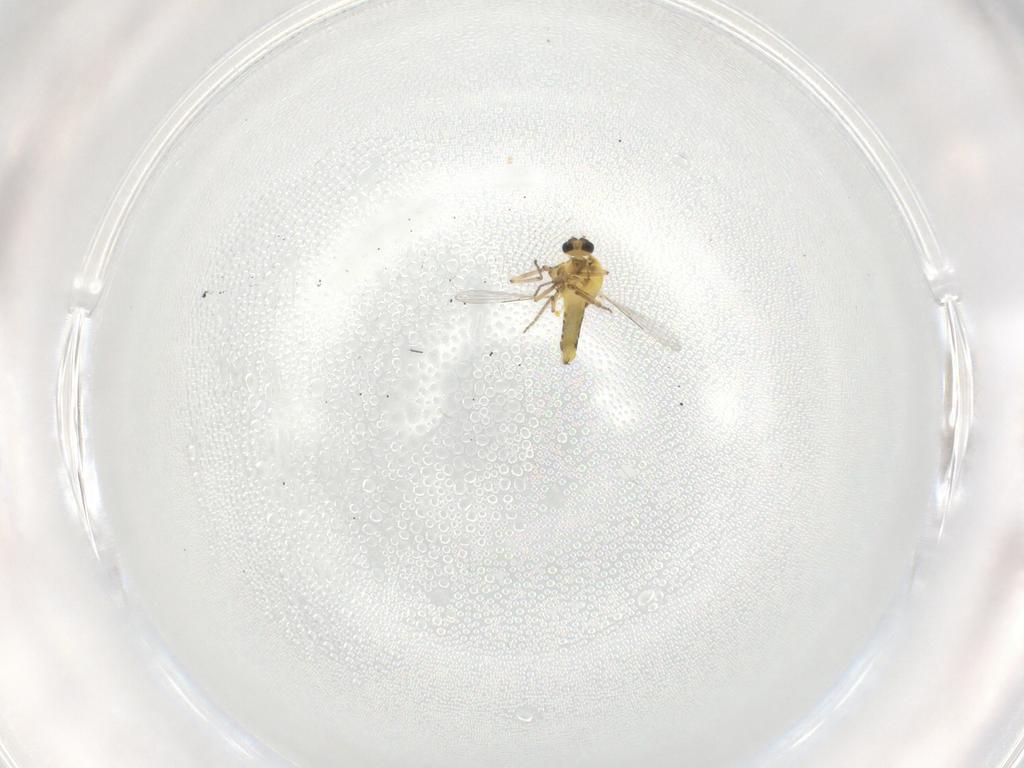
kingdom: Animalia
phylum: Arthropoda
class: Insecta
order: Diptera
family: Ceratopogonidae
